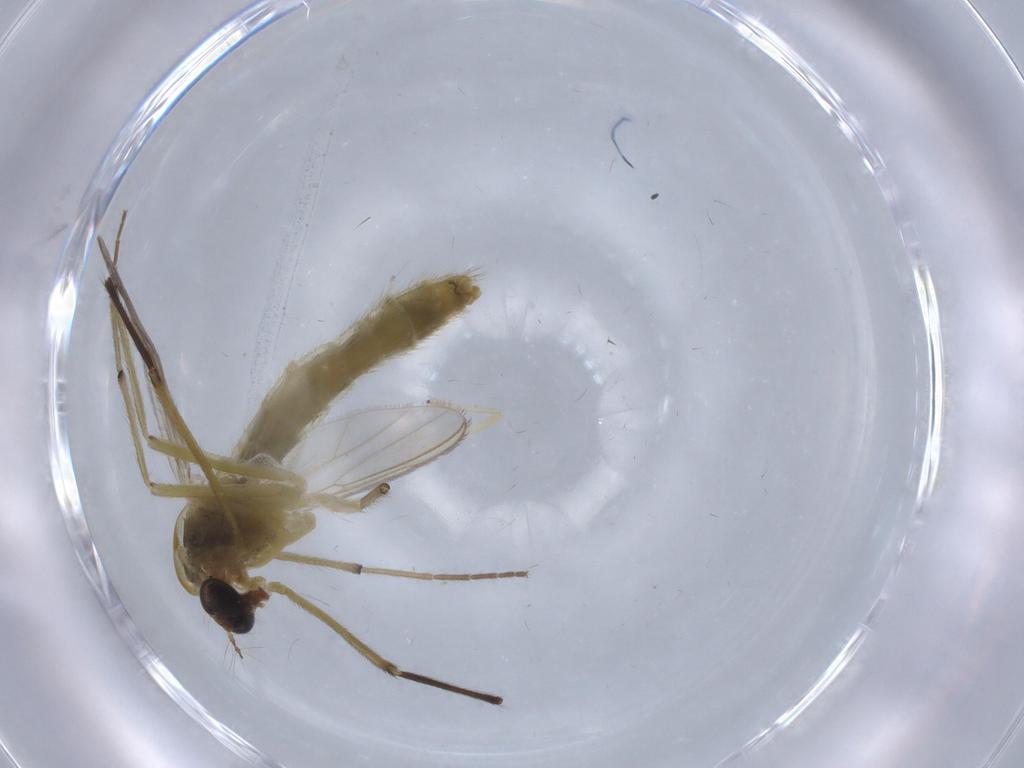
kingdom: Animalia
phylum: Arthropoda
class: Insecta
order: Diptera
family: Chironomidae
